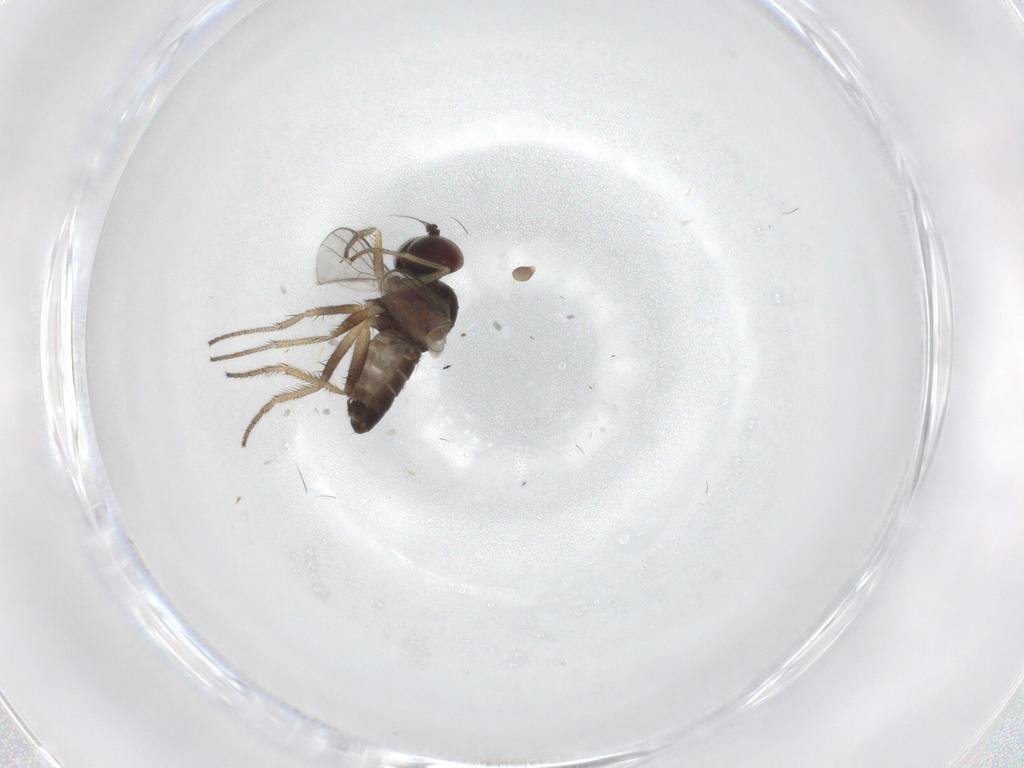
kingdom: Animalia
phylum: Arthropoda
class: Insecta
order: Diptera
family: Dolichopodidae
